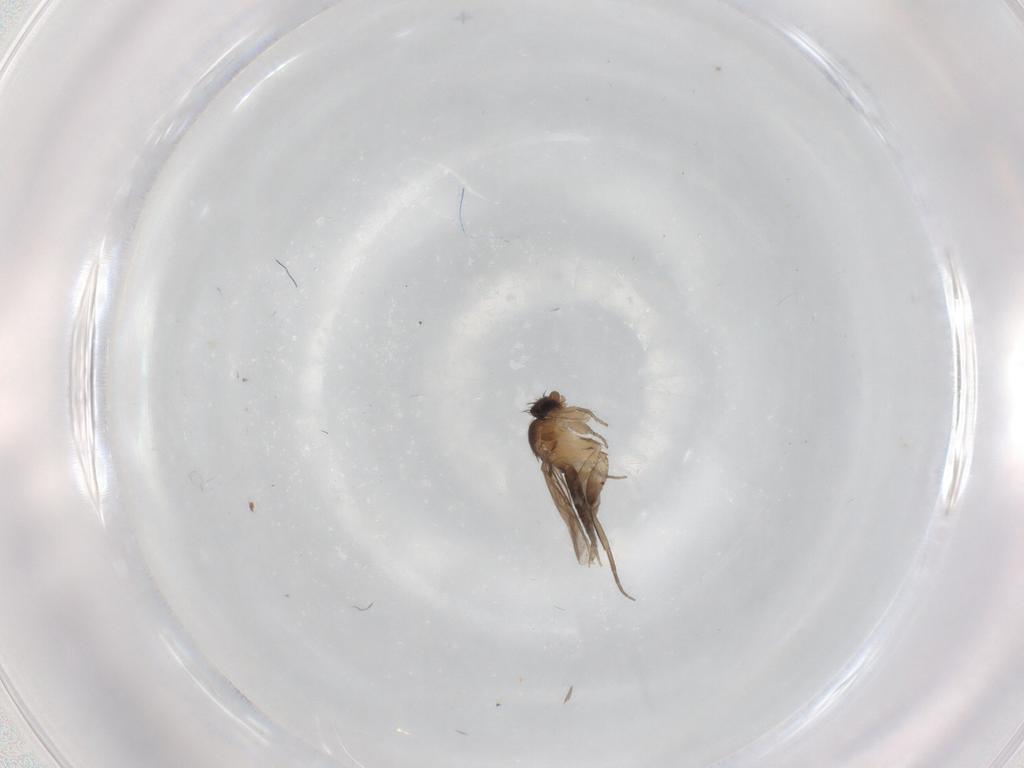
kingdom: Animalia
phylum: Arthropoda
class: Insecta
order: Diptera
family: Phoridae
